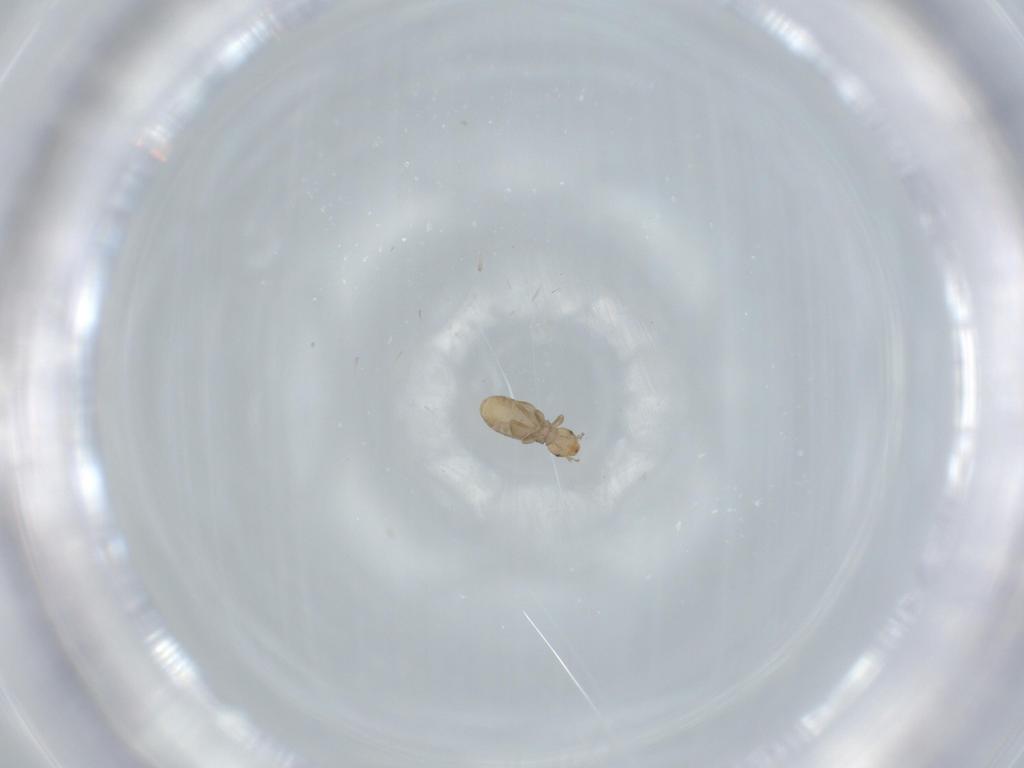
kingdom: Animalia
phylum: Arthropoda
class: Insecta
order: Psocodea
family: Liposcelididae
